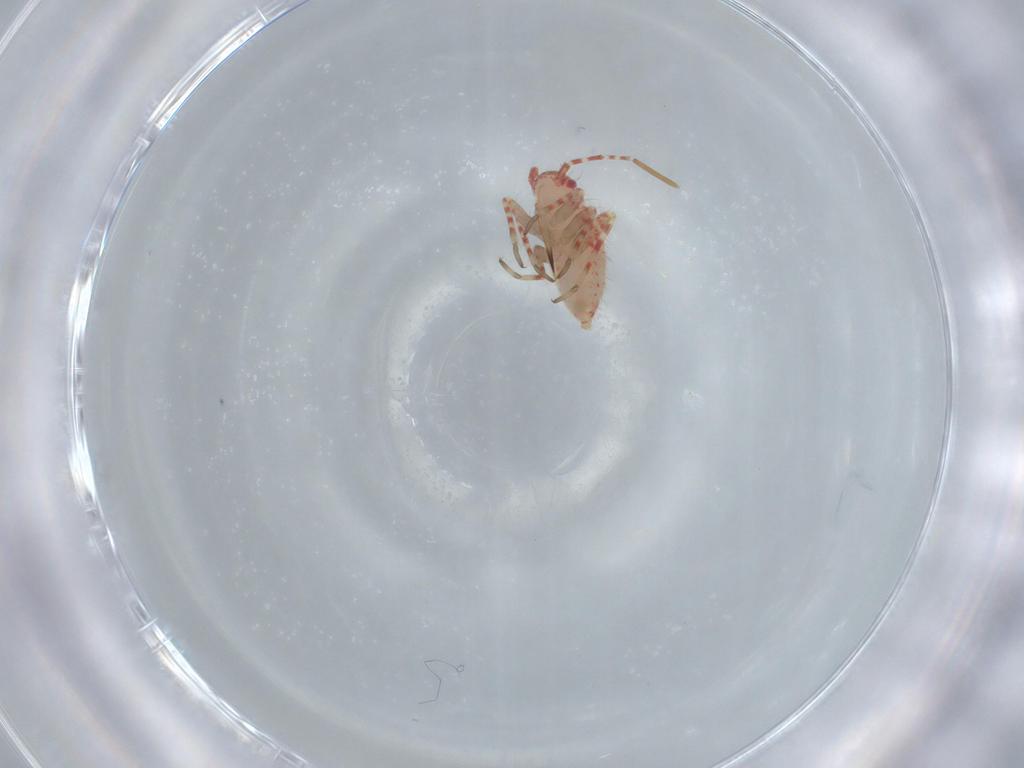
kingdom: Animalia
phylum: Arthropoda
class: Insecta
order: Hemiptera
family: Miridae
